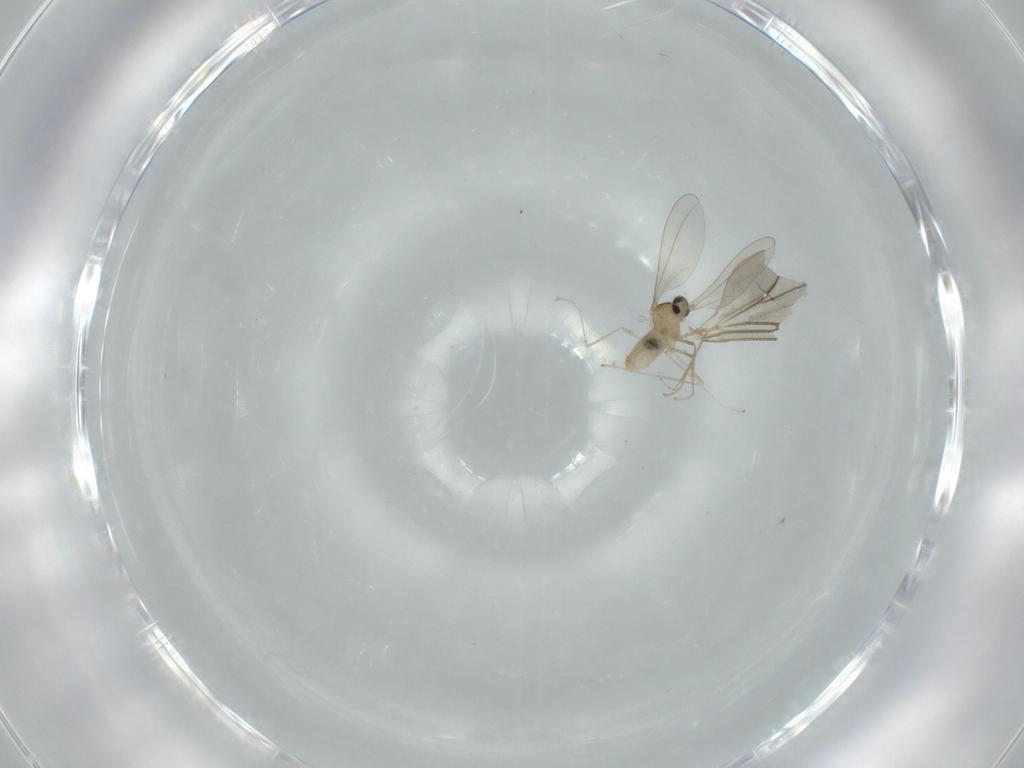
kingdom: Animalia
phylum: Arthropoda
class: Insecta
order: Diptera
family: Cecidomyiidae
